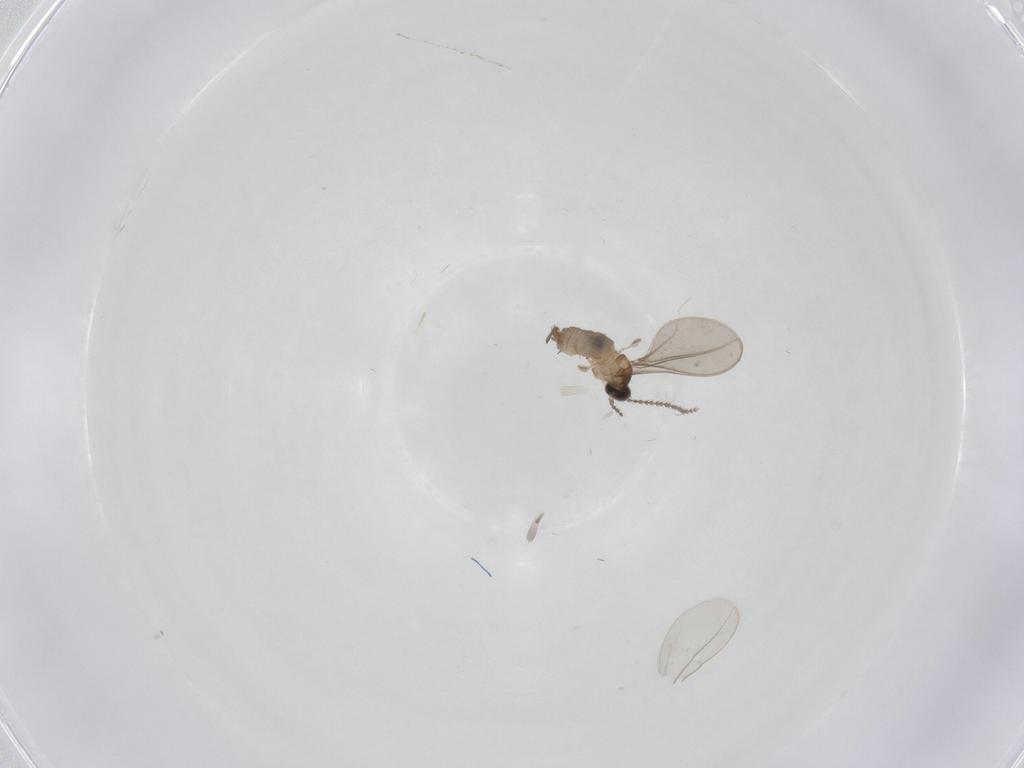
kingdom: Animalia
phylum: Arthropoda
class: Insecta
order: Diptera
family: Cecidomyiidae
